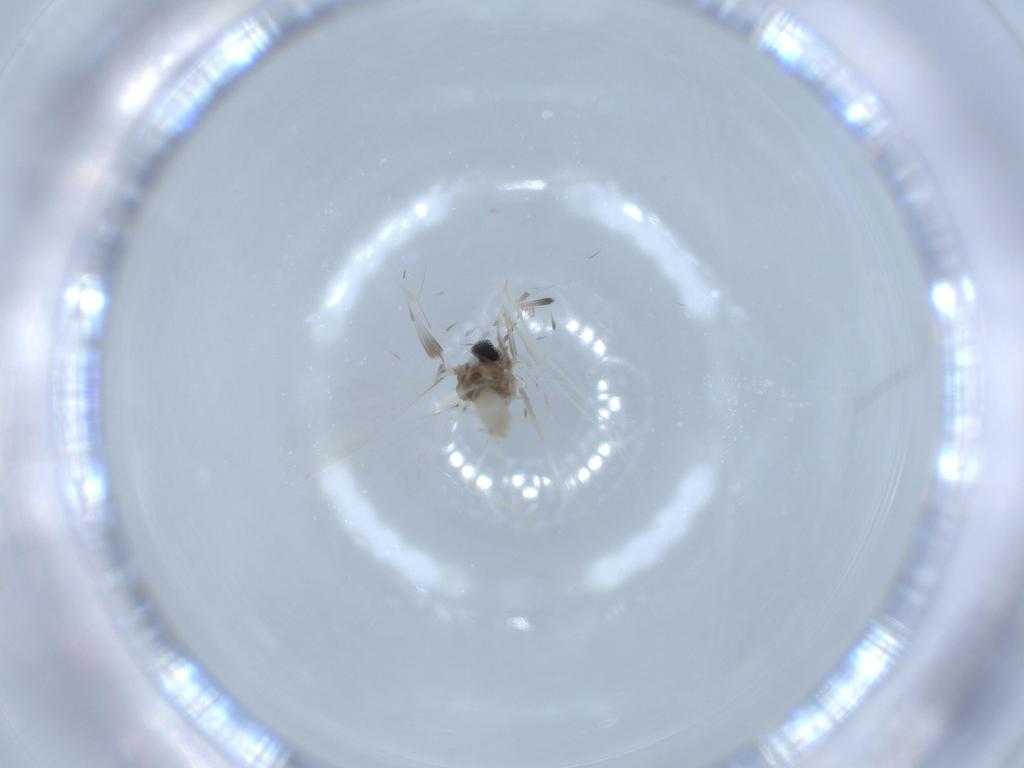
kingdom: Animalia
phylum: Arthropoda
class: Insecta
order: Diptera
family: Cecidomyiidae
